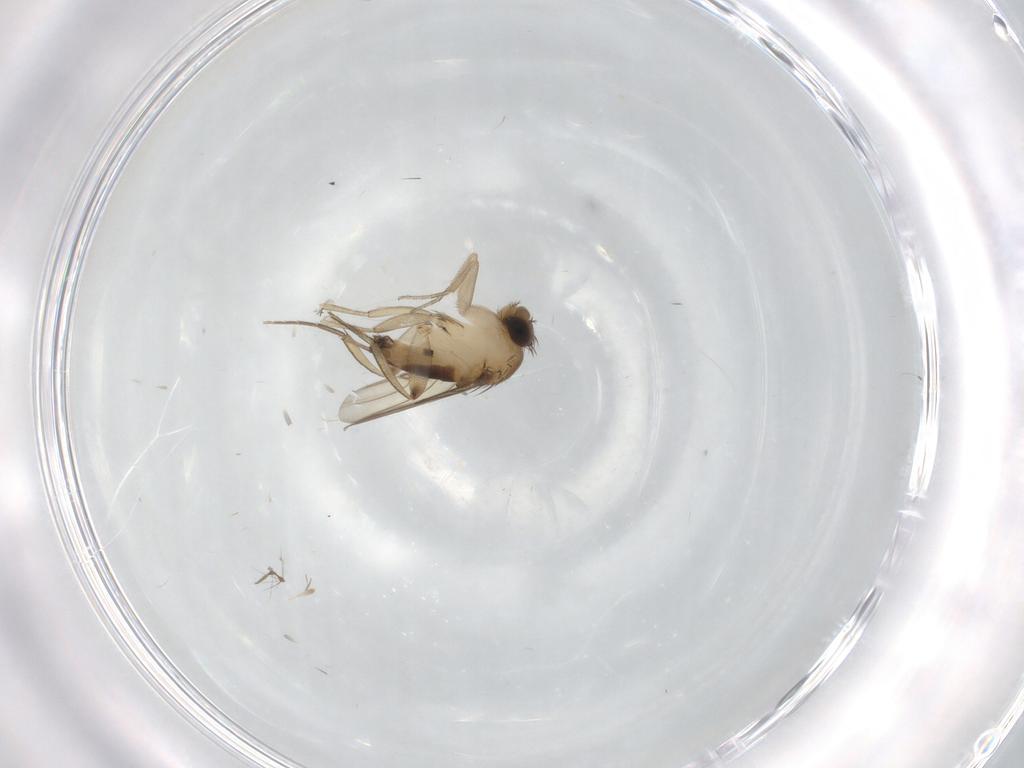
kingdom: Animalia
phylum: Arthropoda
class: Insecta
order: Diptera
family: Phoridae
